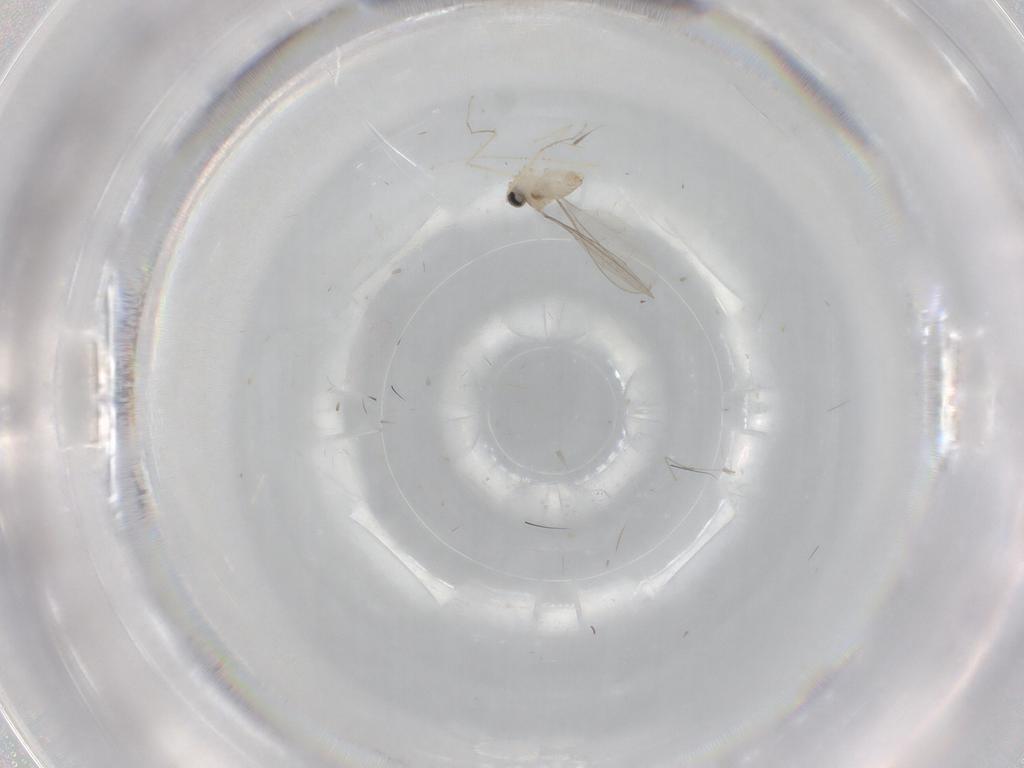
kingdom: Animalia
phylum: Arthropoda
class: Insecta
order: Diptera
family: Cecidomyiidae
